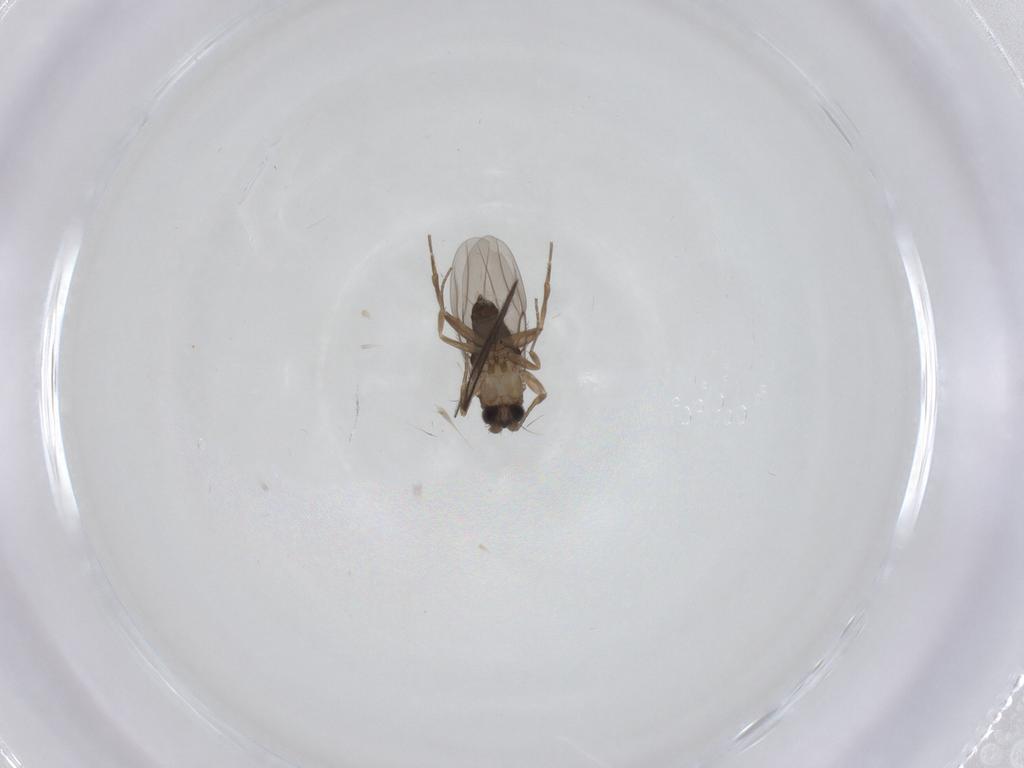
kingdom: Animalia
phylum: Arthropoda
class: Insecta
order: Diptera
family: Phoridae
